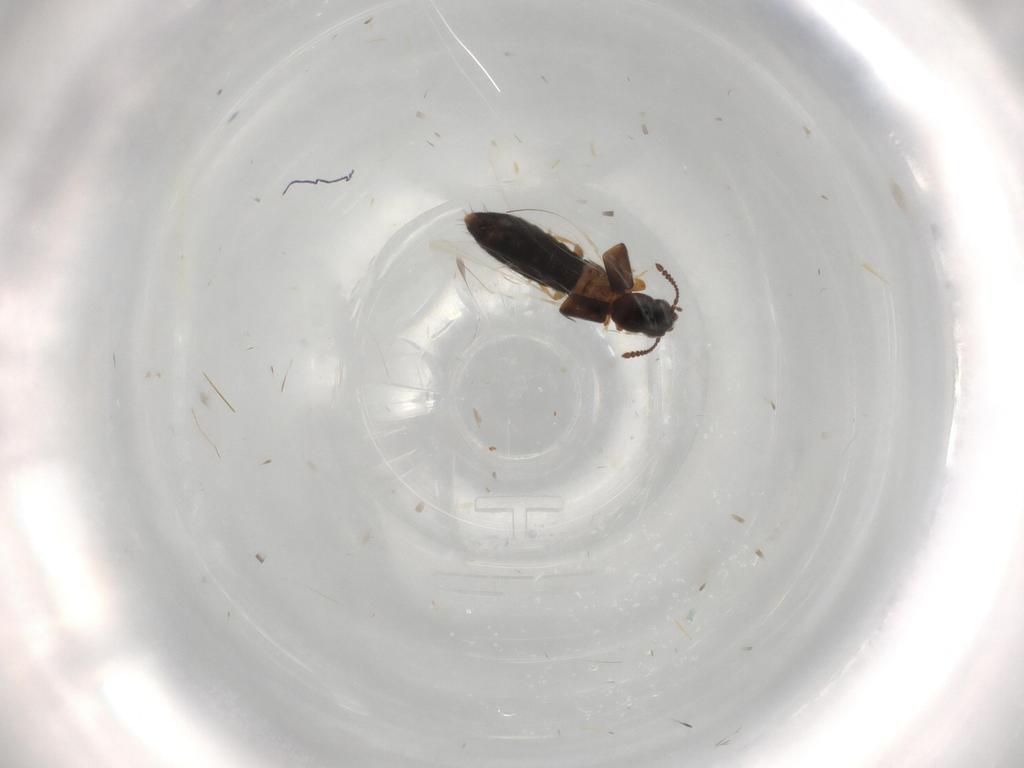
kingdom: Animalia
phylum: Arthropoda
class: Insecta
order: Coleoptera
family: Staphylinidae
